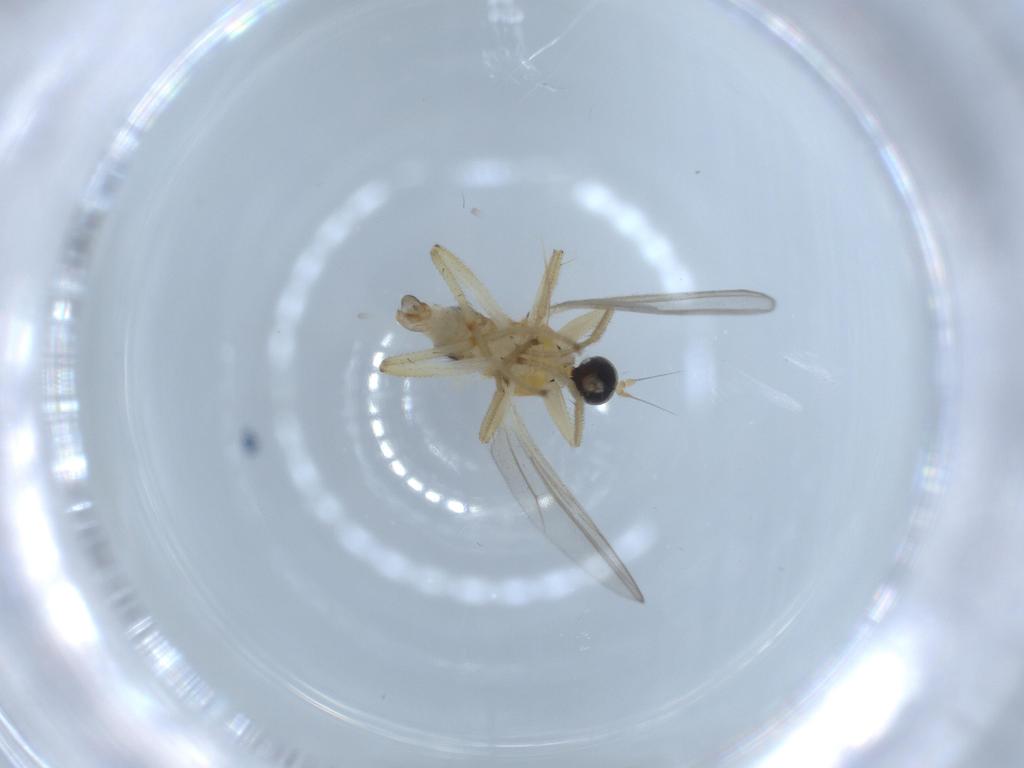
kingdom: Animalia
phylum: Arthropoda
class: Insecta
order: Diptera
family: Hybotidae
